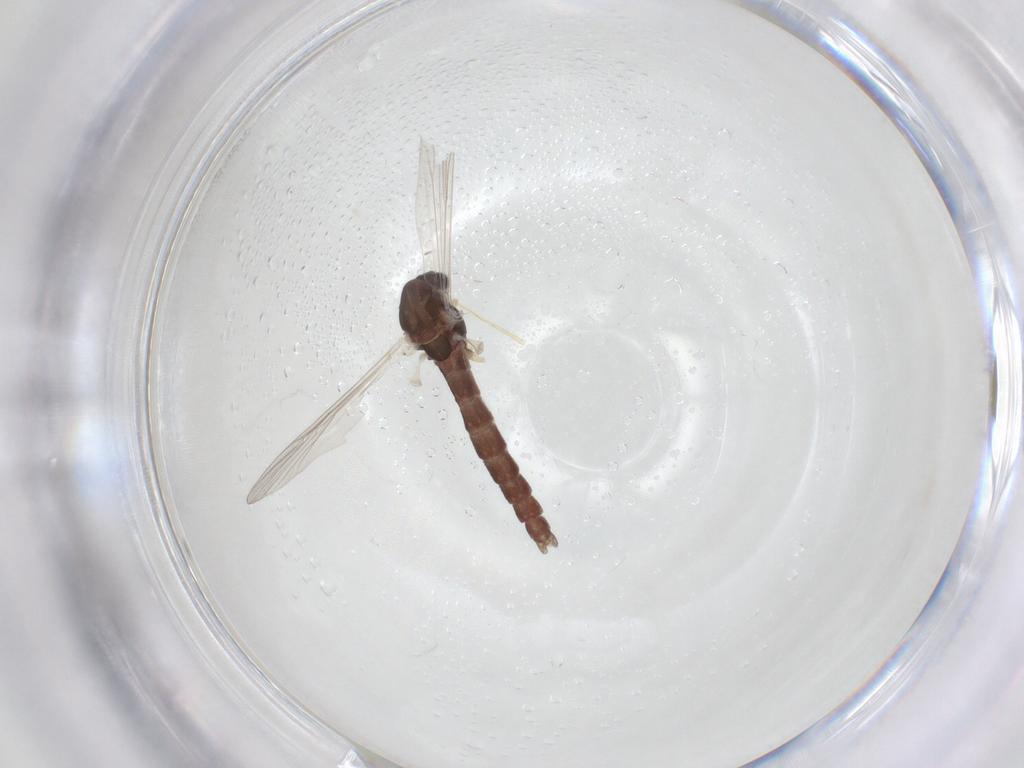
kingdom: Animalia
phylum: Arthropoda
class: Insecta
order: Diptera
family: Chironomidae
